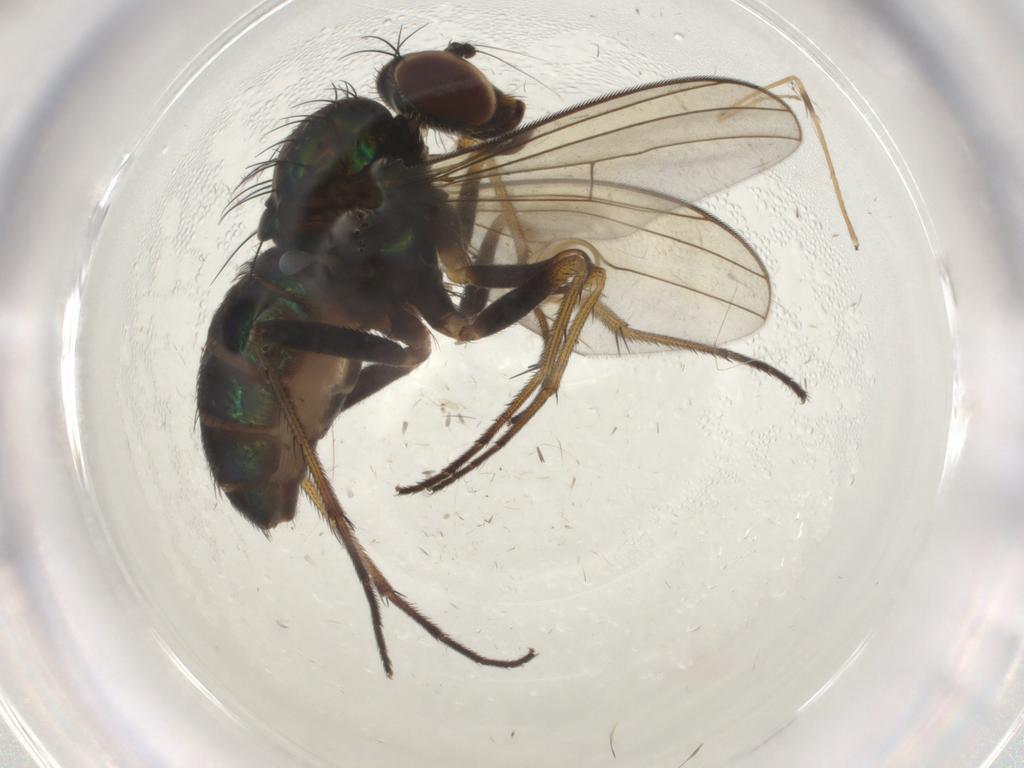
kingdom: Animalia
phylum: Arthropoda
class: Insecta
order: Diptera
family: Dolichopodidae
